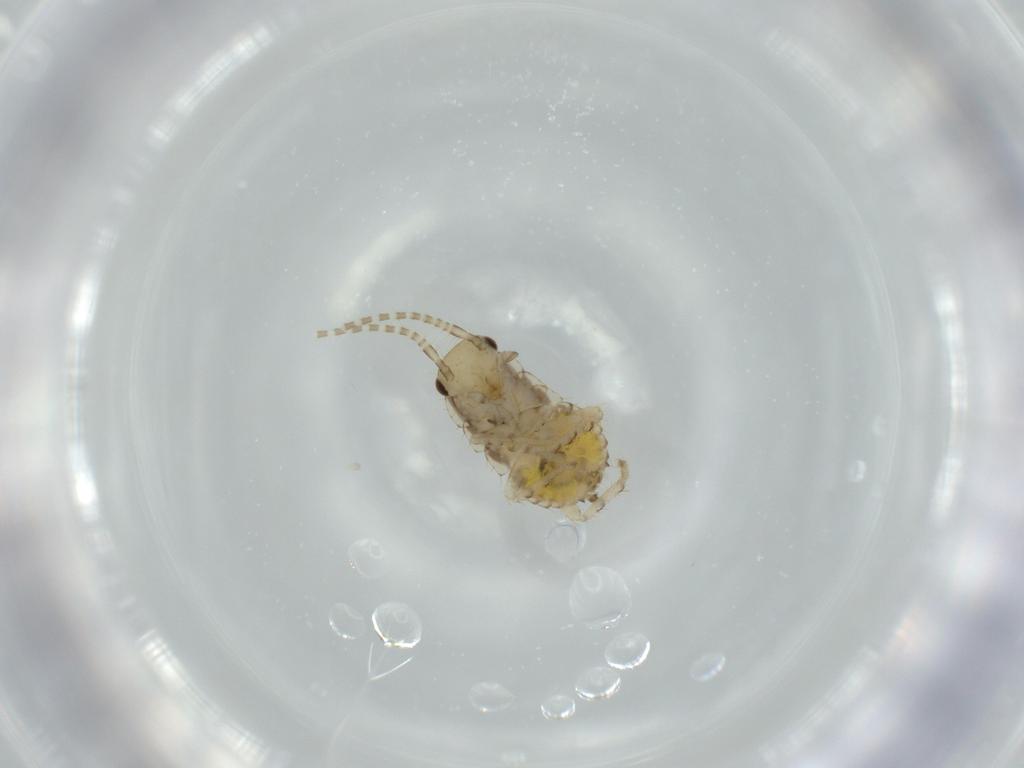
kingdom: Animalia
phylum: Arthropoda
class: Insecta
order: Blattodea
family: Ectobiidae
